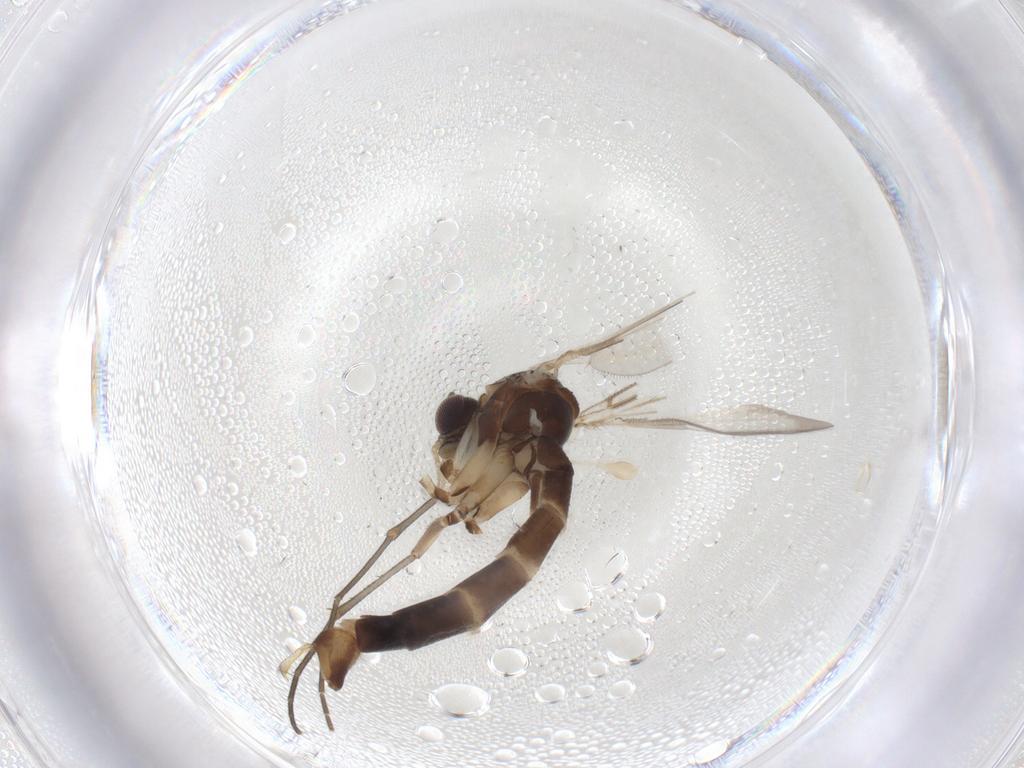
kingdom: Animalia
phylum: Arthropoda
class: Insecta
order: Diptera
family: Mycetophilidae
